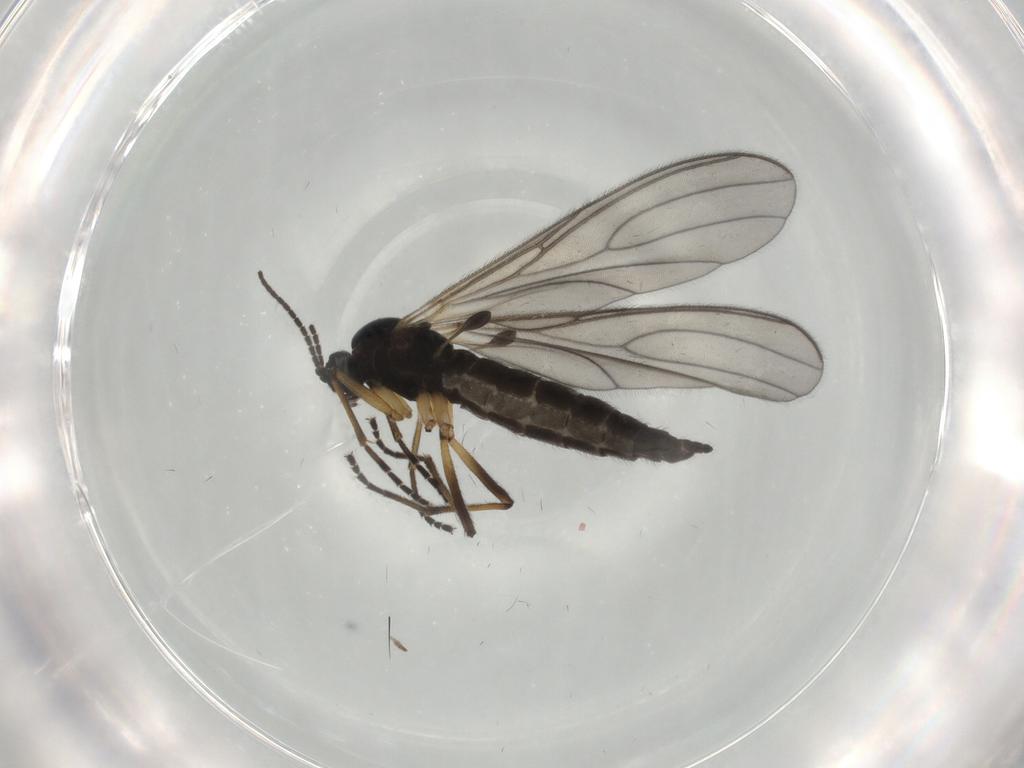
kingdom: Animalia
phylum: Arthropoda
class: Insecta
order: Diptera
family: Sciaridae
